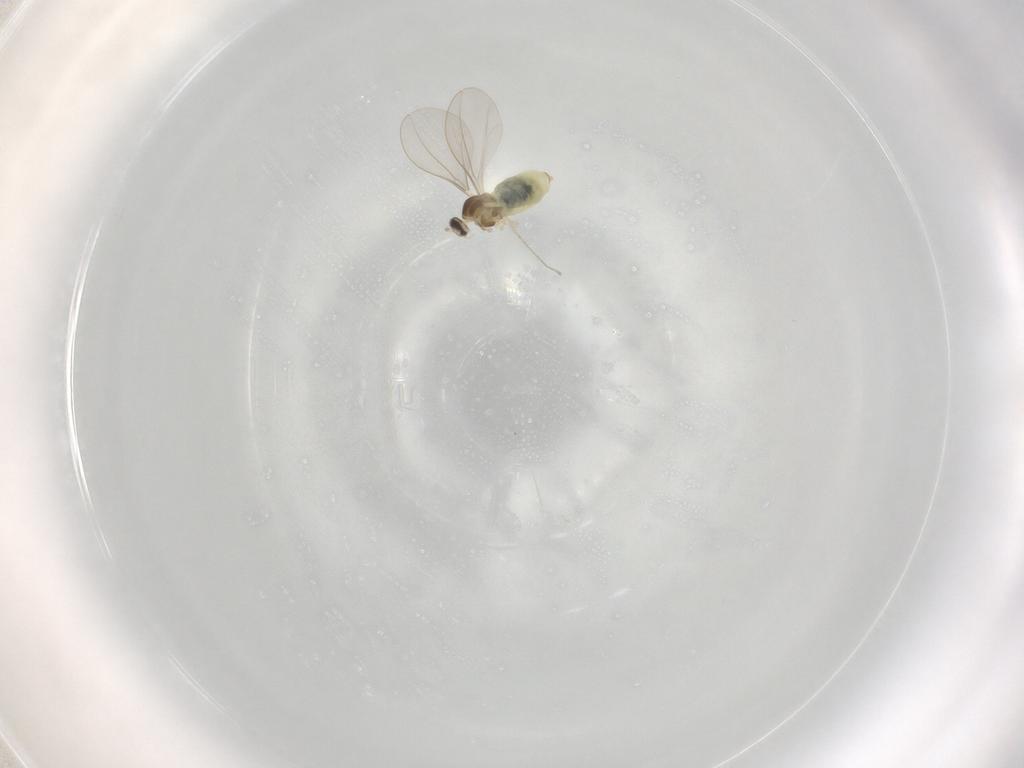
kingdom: Animalia
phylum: Arthropoda
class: Insecta
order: Diptera
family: Cecidomyiidae
